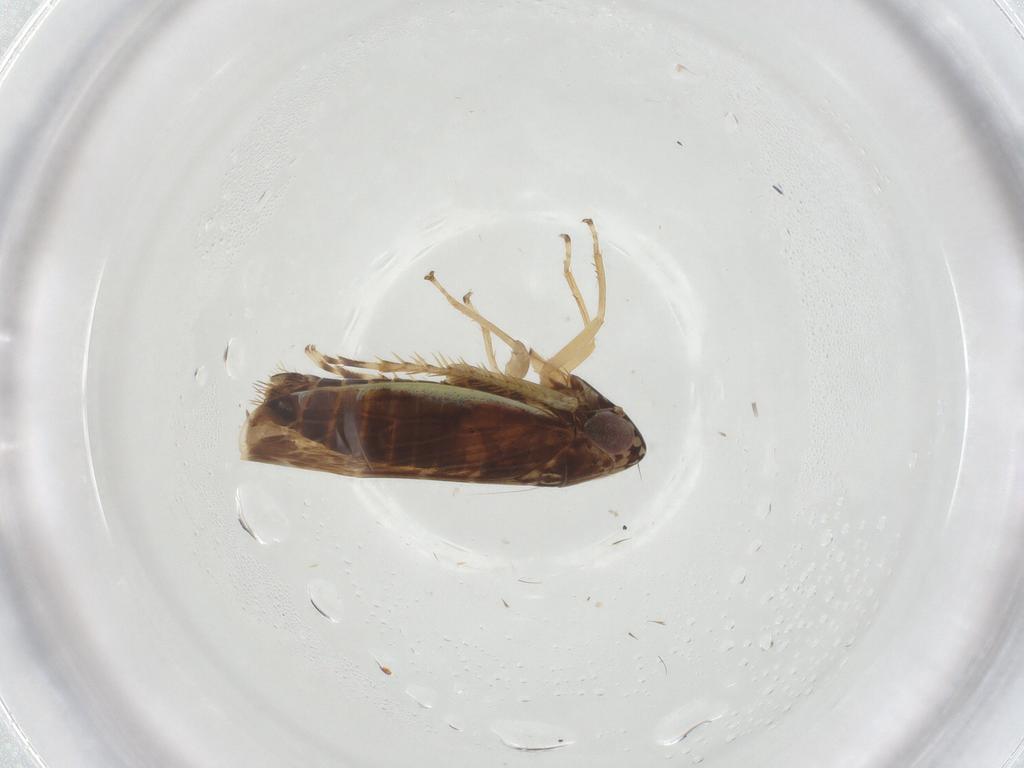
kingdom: Animalia
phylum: Arthropoda
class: Insecta
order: Hemiptera
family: Cicadellidae
